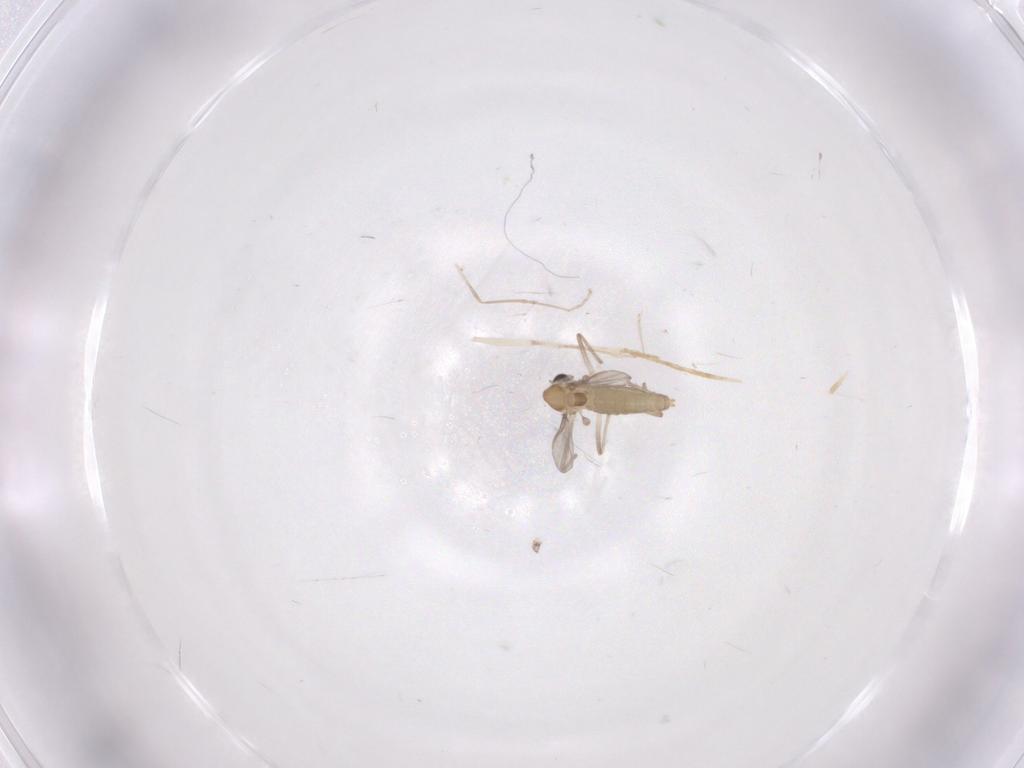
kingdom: Animalia
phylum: Arthropoda
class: Insecta
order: Diptera
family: Chironomidae
